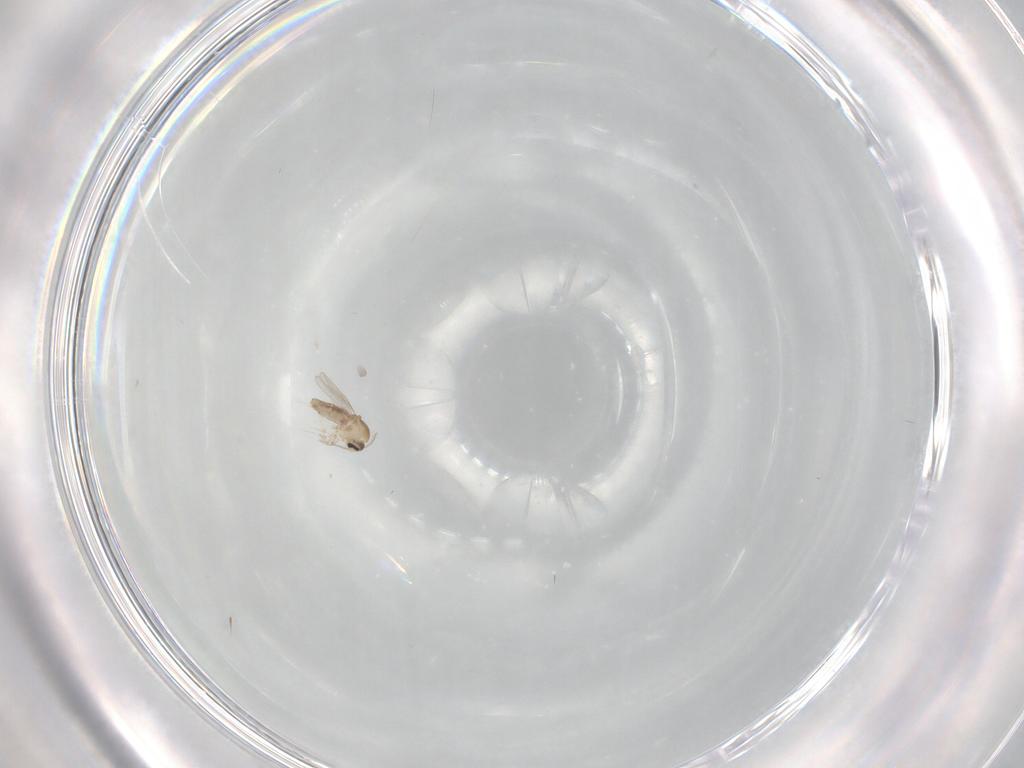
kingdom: Animalia
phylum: Arthropoda
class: Insecta
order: Diptera
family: Ceratopogonidae
